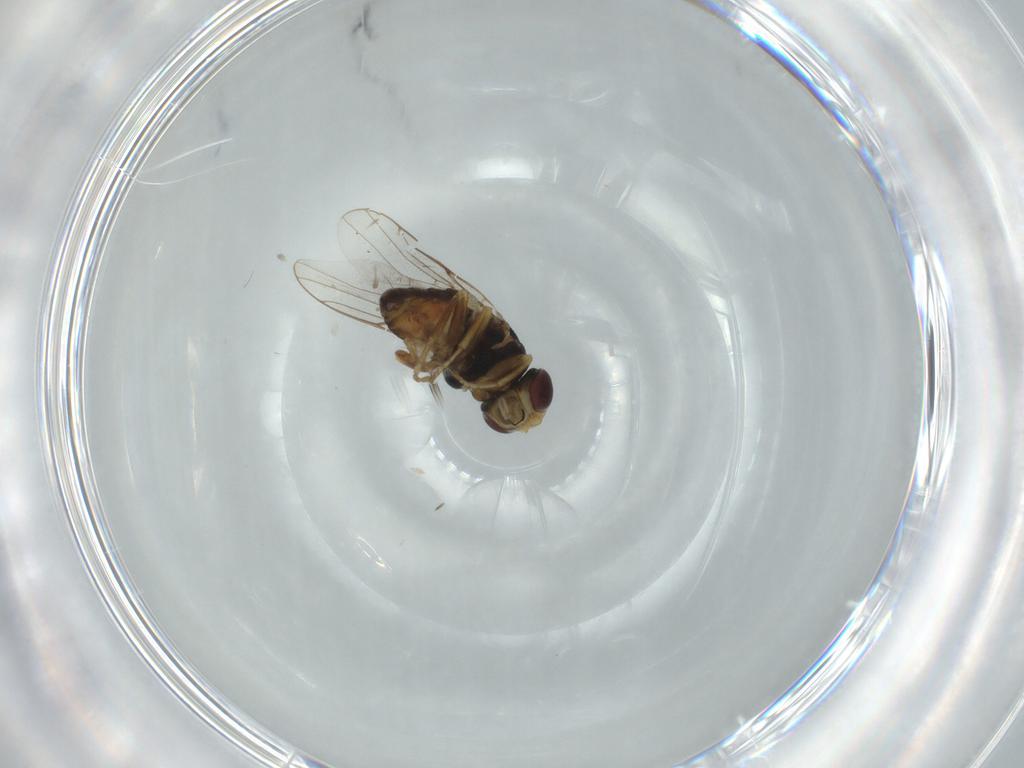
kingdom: Animalia
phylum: Arthropoda
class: Insecta
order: Diptera
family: Chloropidae
